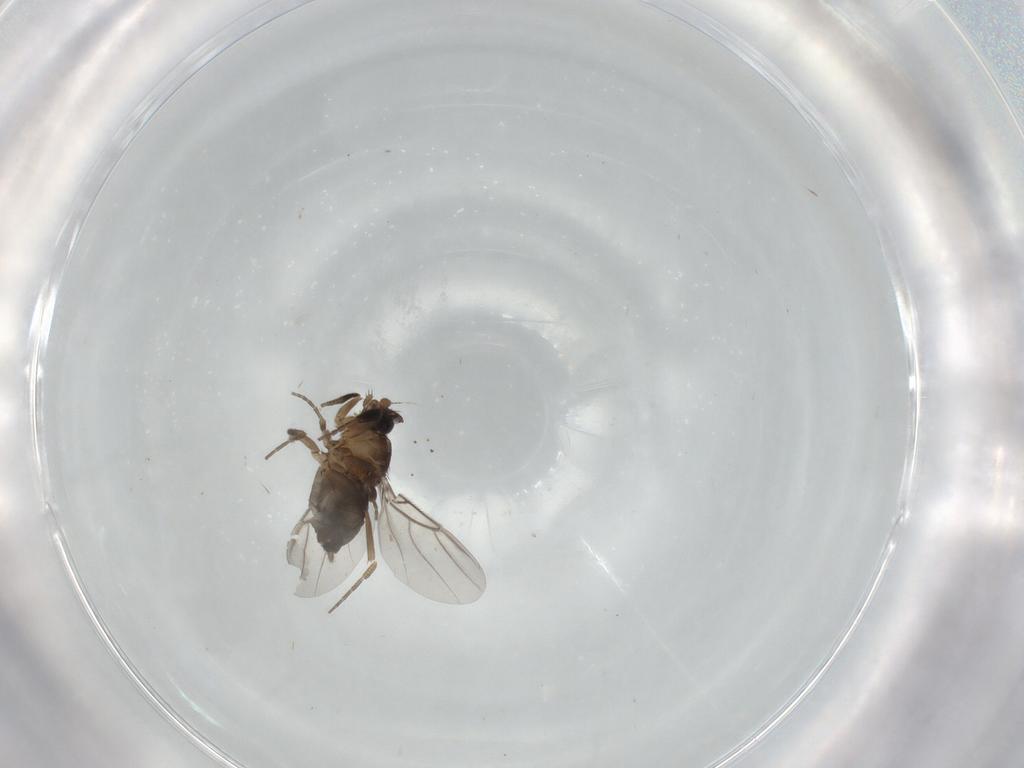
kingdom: Animalia
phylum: Arthropoda
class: Insecta
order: Diptera
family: Phoridae
